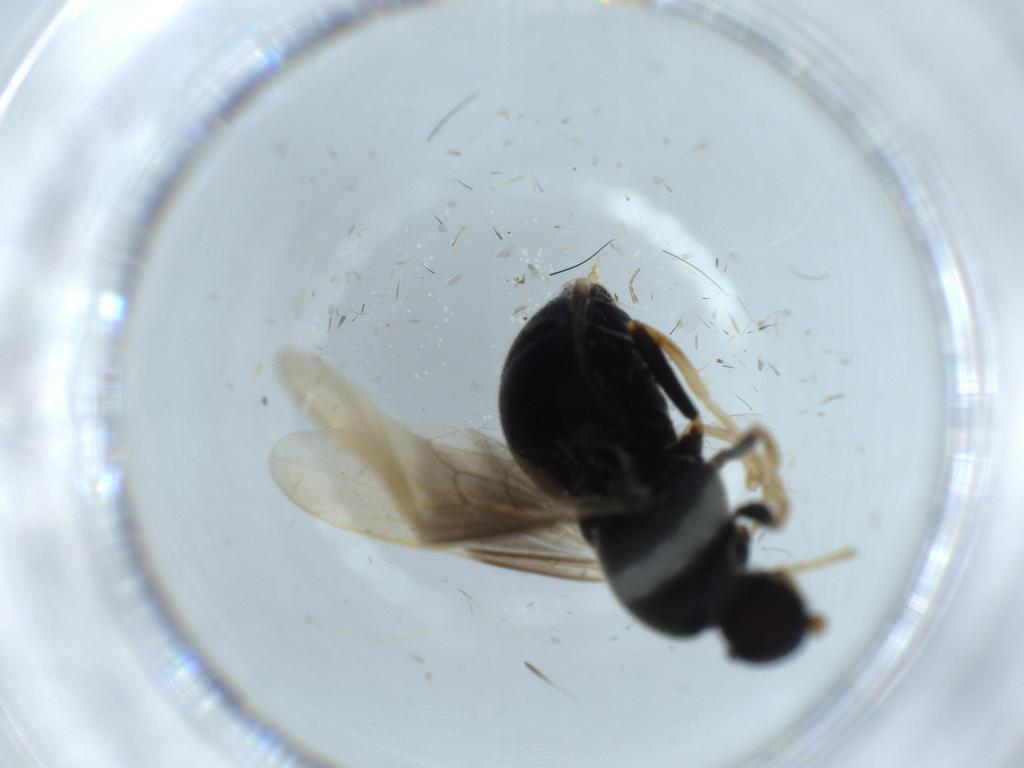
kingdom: Animalia
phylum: Arthropoda
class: Insecta
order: Diptera
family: Stratiomyidae
